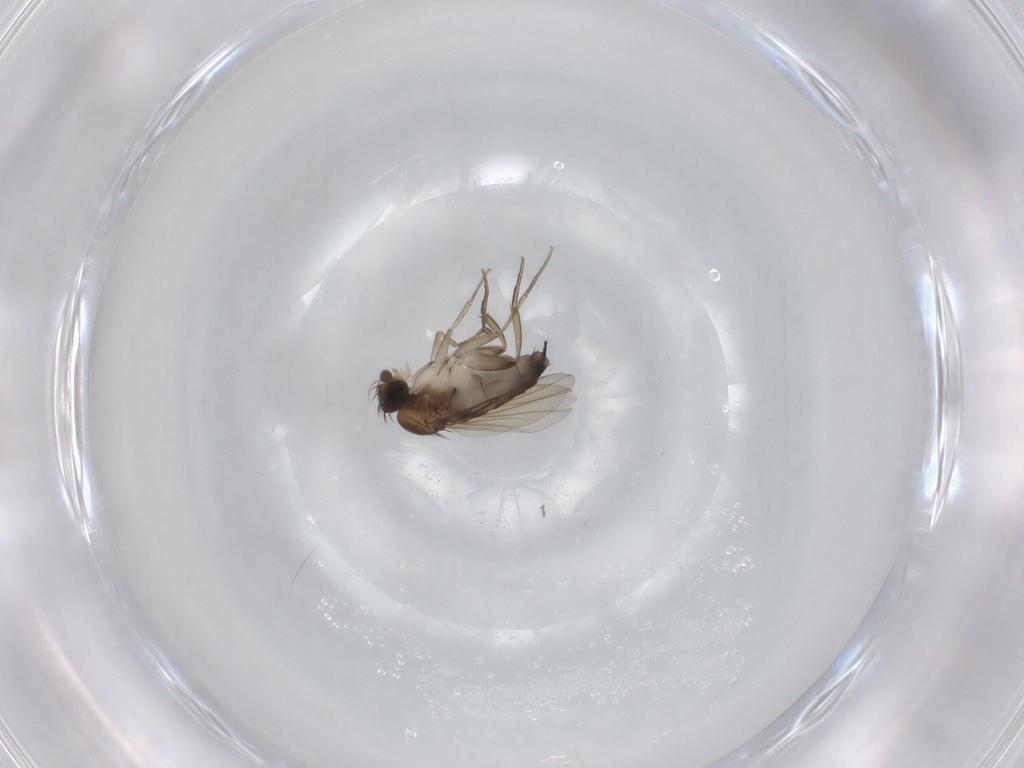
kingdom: Animalia
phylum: Arthropoda
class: Insecta
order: Diptera
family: Phoridae
